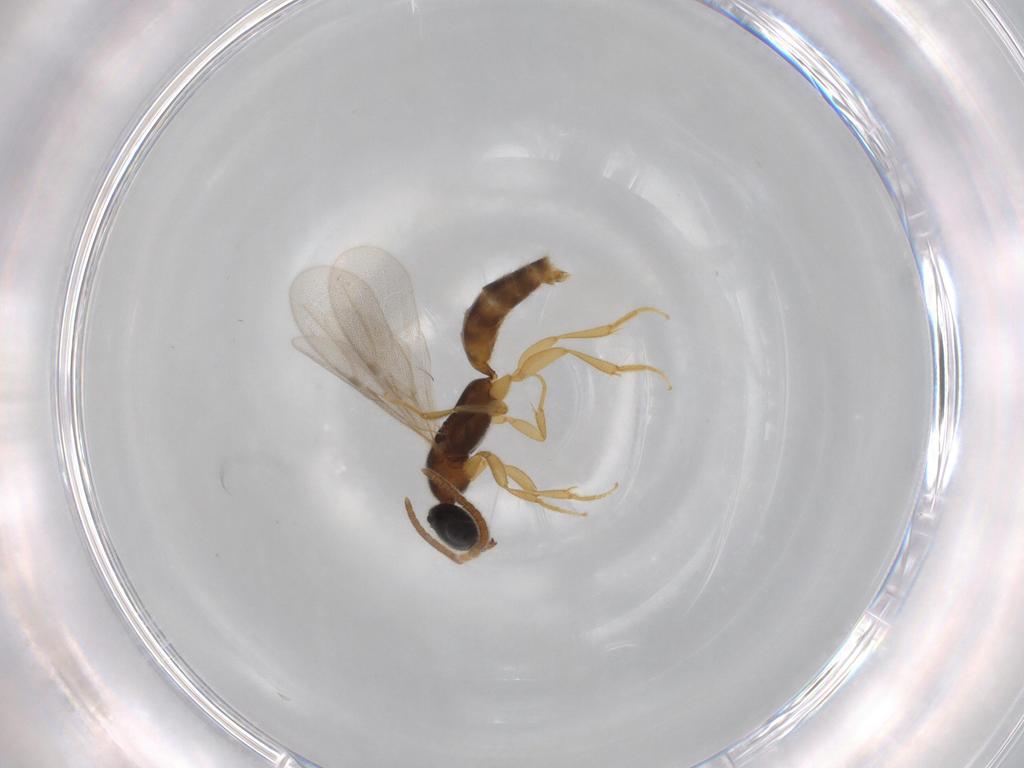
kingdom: Animalia
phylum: Arthropoda
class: Insecta
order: Hymenoptera
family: Bethylidae
